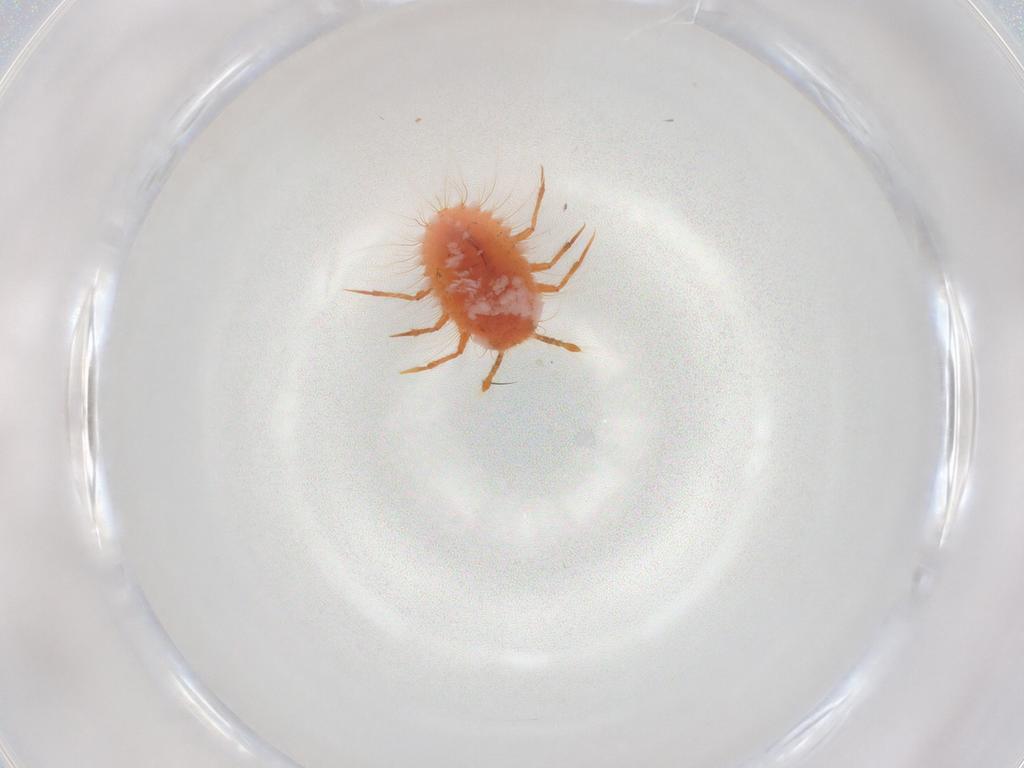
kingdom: Animalia
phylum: Arthropoda
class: Insecta
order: Hemiptera
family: Coccoidea_incertae_sedis
